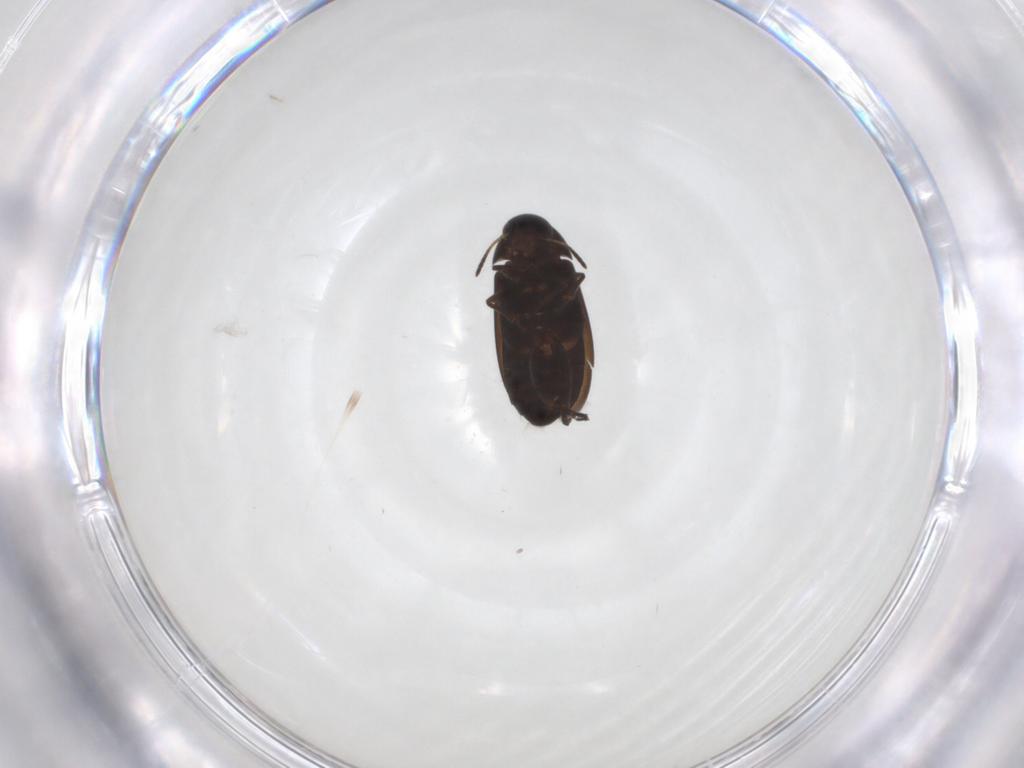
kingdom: Animalia
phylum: Arthropoda
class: Insecta
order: Coleoptera
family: Scraptiidae
